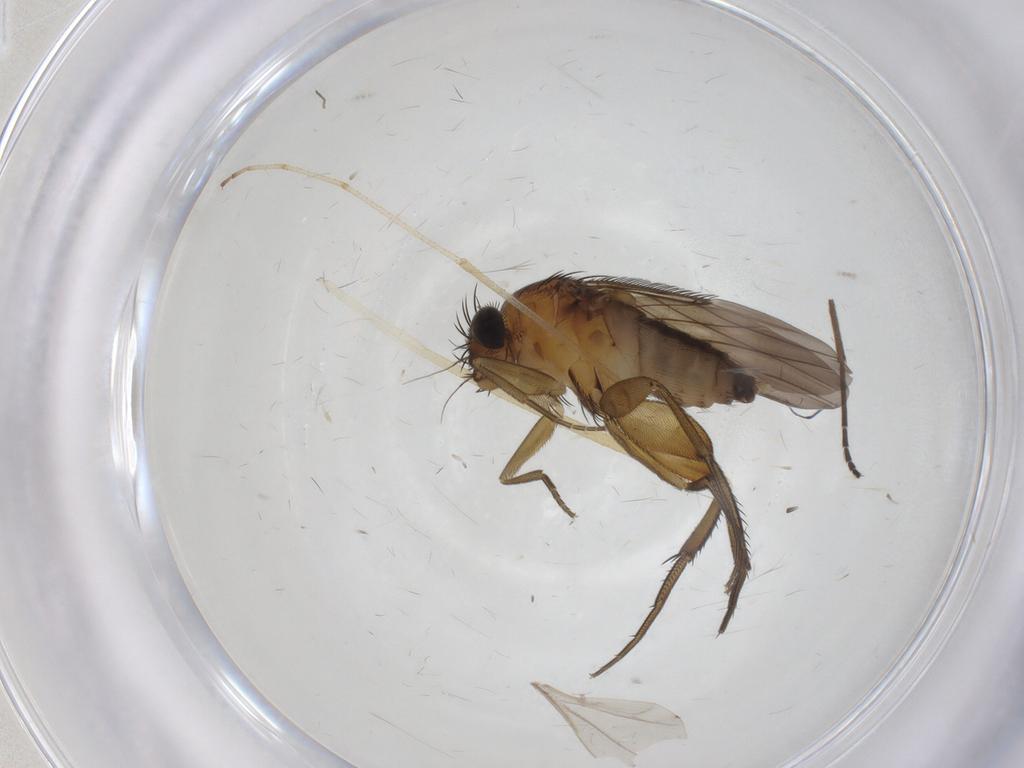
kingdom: Animalia
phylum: Arthropoda
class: Insecta
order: Diptera
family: Phoridae
